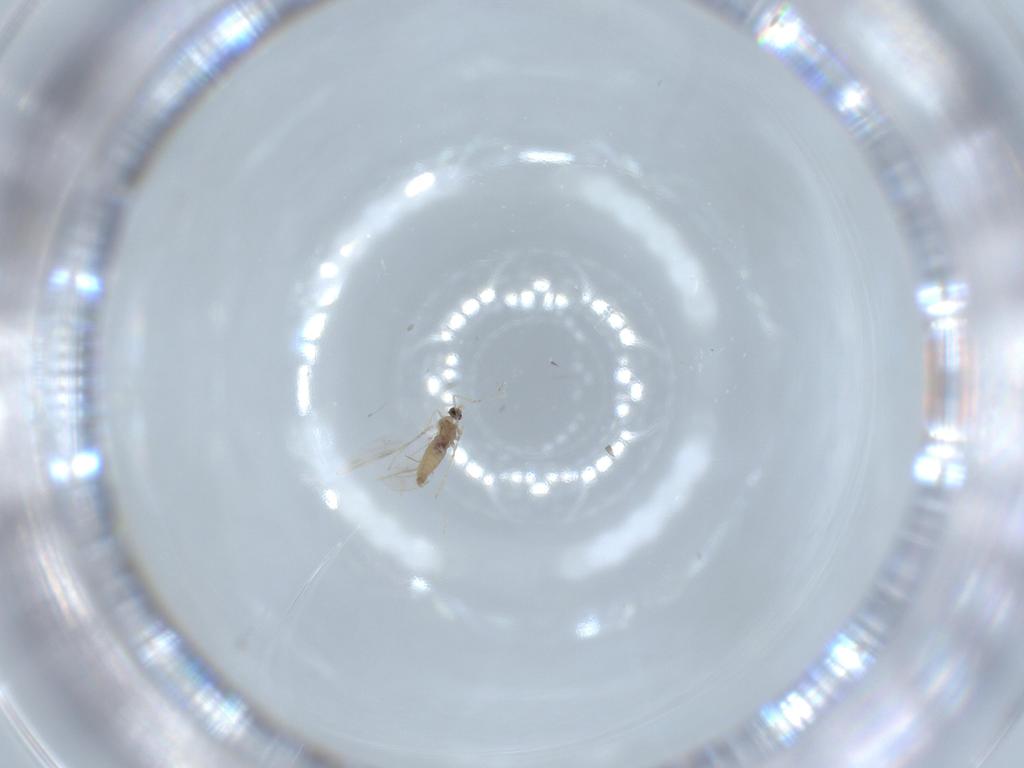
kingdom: Animalia
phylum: Arthropoda
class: Insecta
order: Diptera
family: Cecidomyiidae
